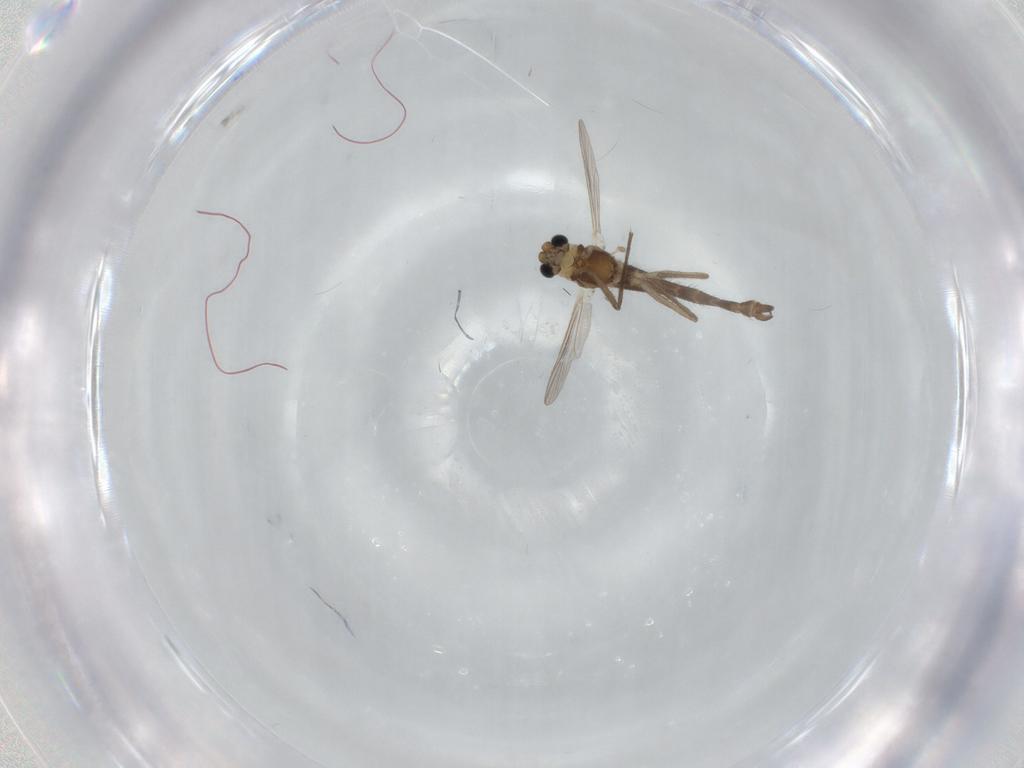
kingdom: Animalia
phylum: Arthropoda
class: Insecta
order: Diptera
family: Chironomidae
